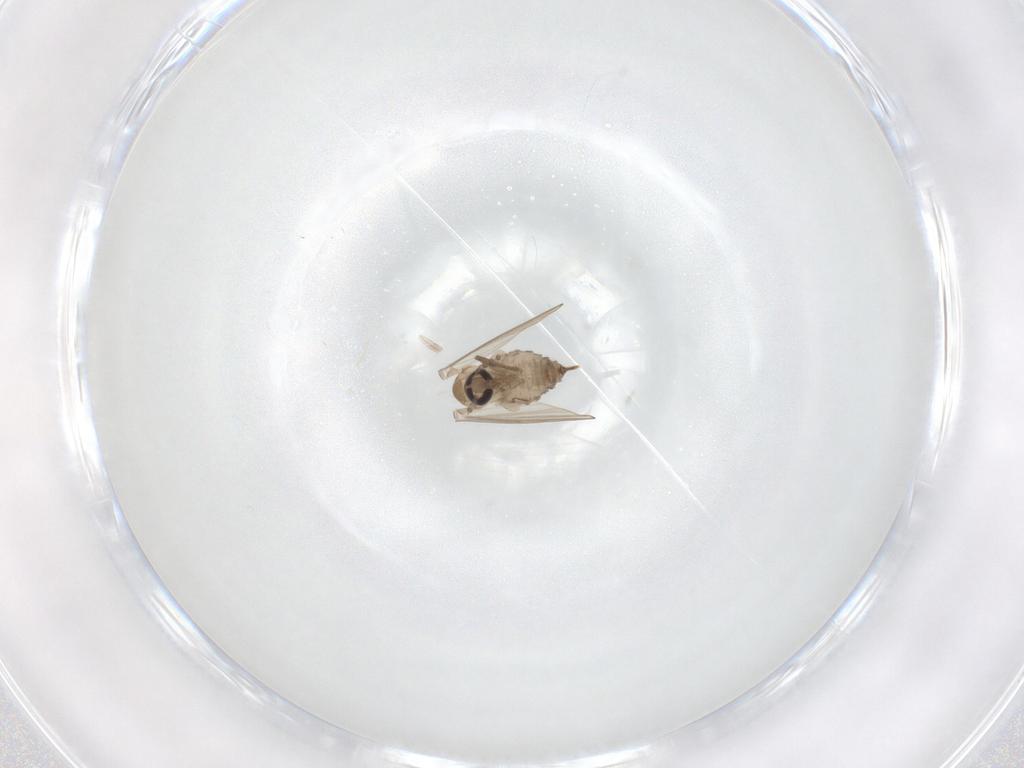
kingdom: Animalia
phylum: Arthropoda
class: Insecta
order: Diptera
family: Psychodidae
